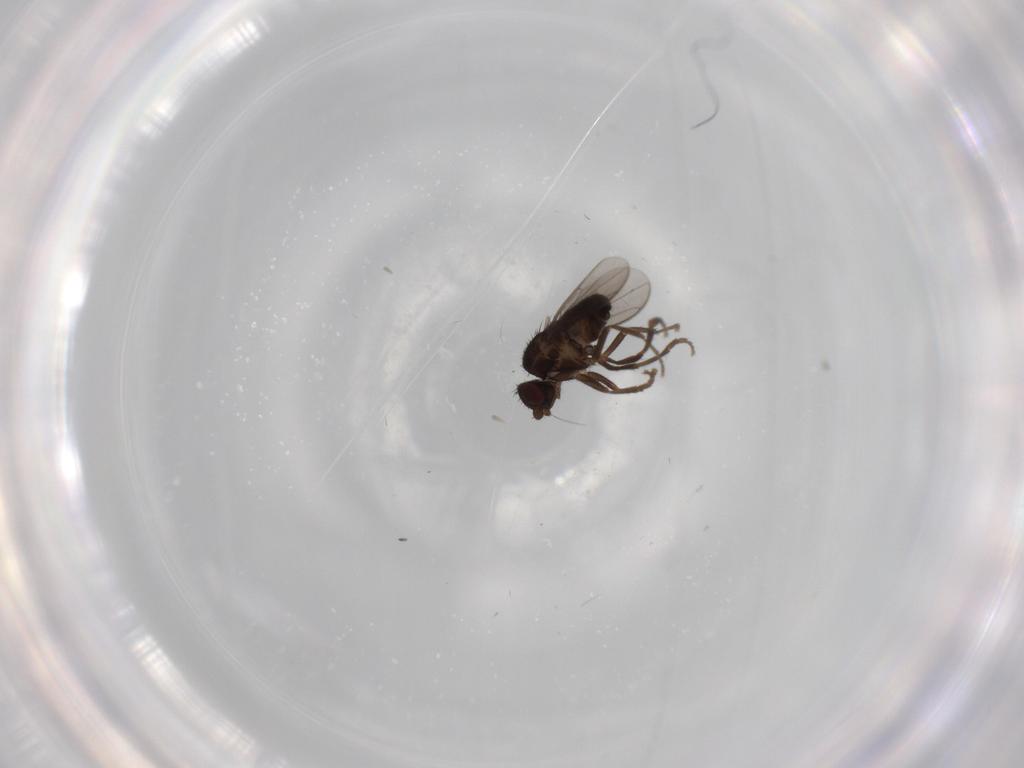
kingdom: Animalia
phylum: Arthropoda
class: Insecta
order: Diptera
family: Sphaeroceridae
